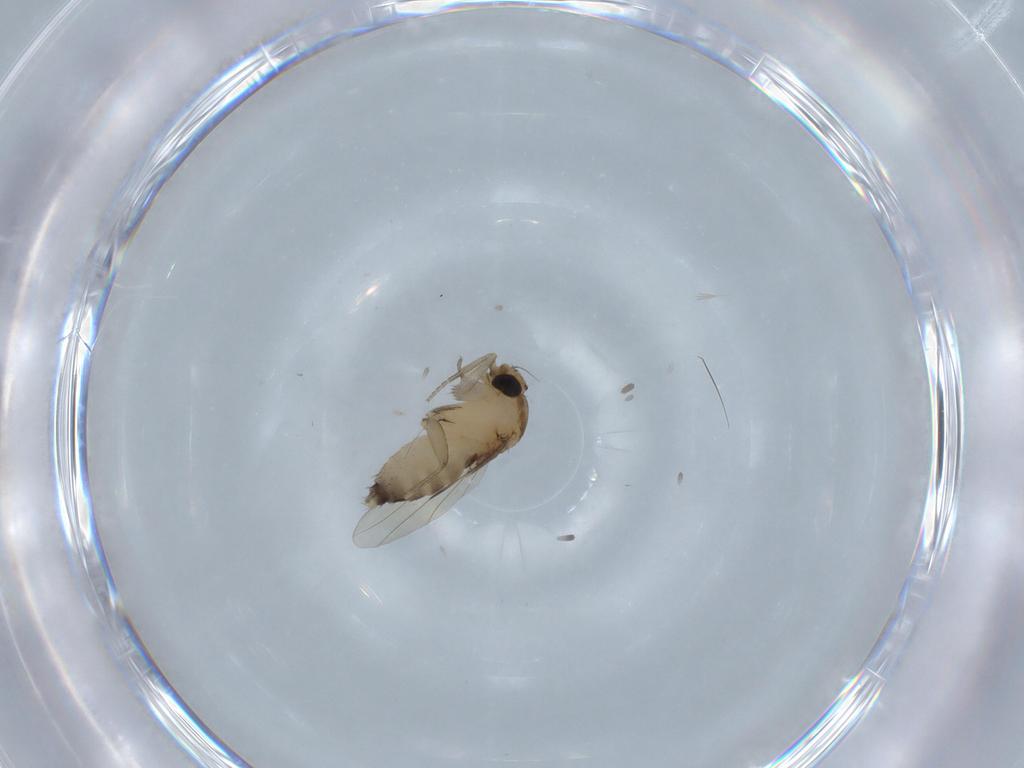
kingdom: Animalia
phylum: Arthropoda
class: Insecta
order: Diptera
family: Phoridae
